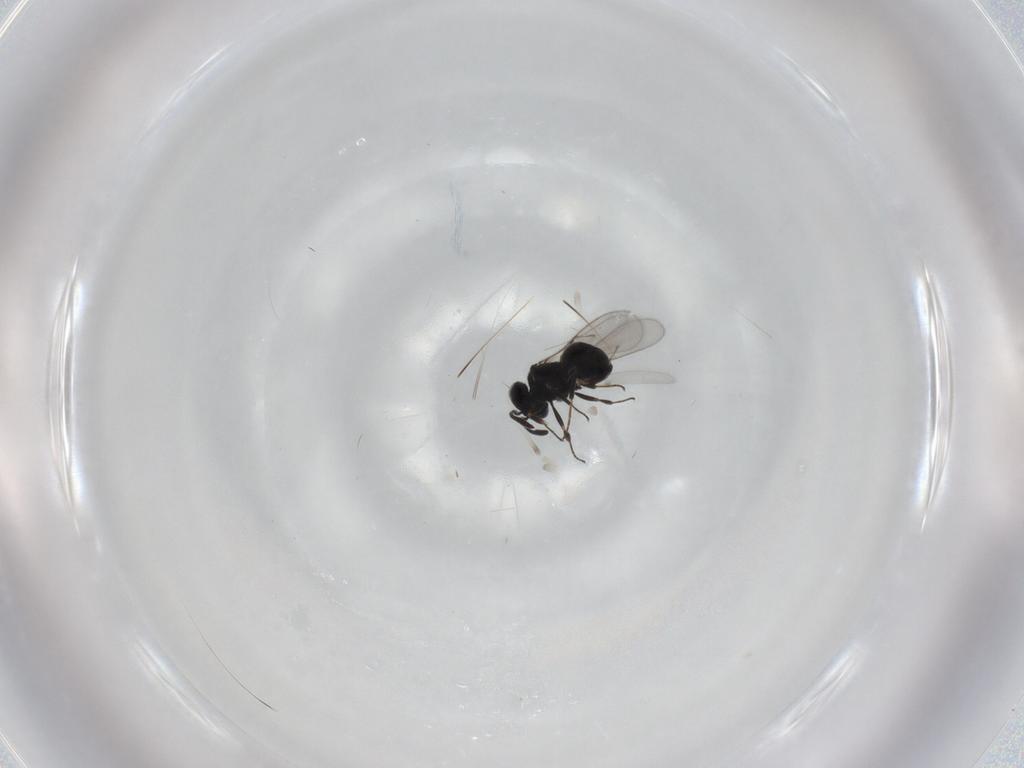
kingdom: Animalia
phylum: Arthropoda
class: Insecta
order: Hymenoptera
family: Scelionidae
